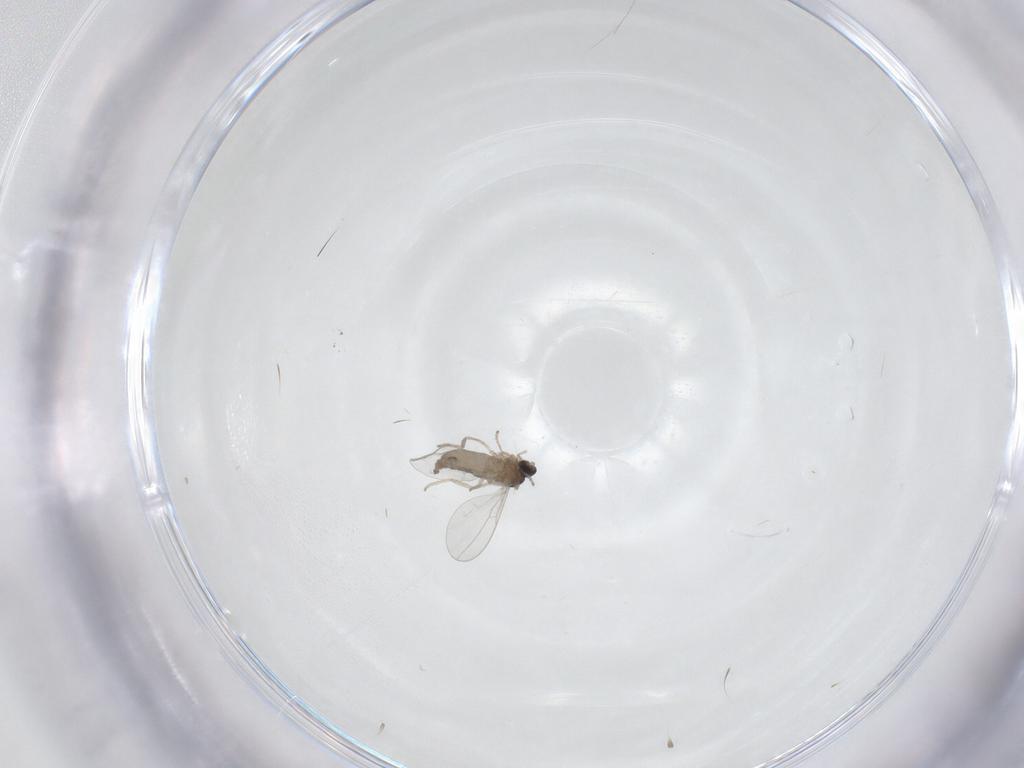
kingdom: Animalia
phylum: Arthropoda
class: Insecta
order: Diptera
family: Cecidomyiidae
